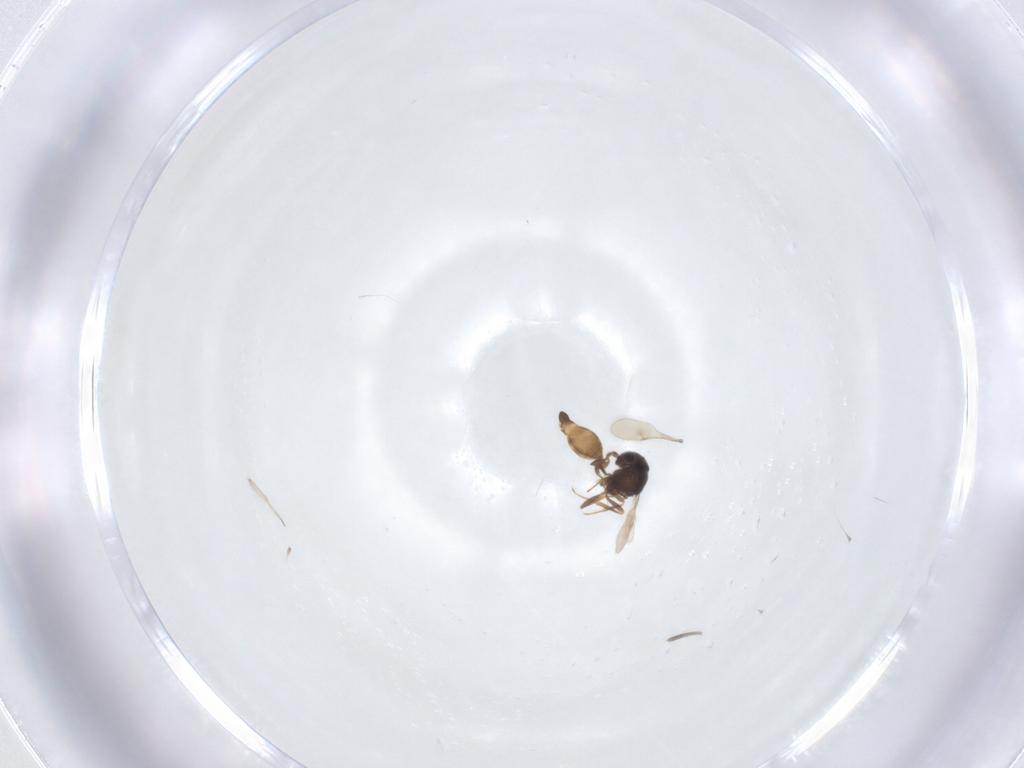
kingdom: Animalia
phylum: Arthropoda
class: Insecta
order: Hymenoptera
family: Scelionidae
